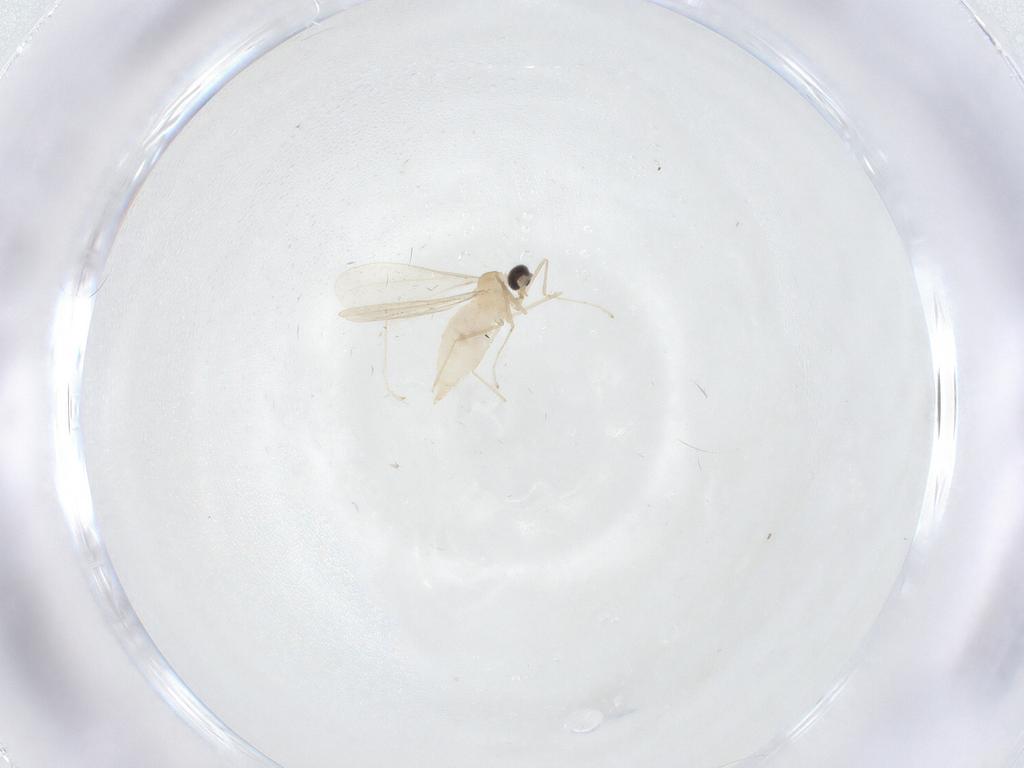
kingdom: Animalia
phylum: Arthropoda
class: Insecta
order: Diptera
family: Cecidomyiidae
